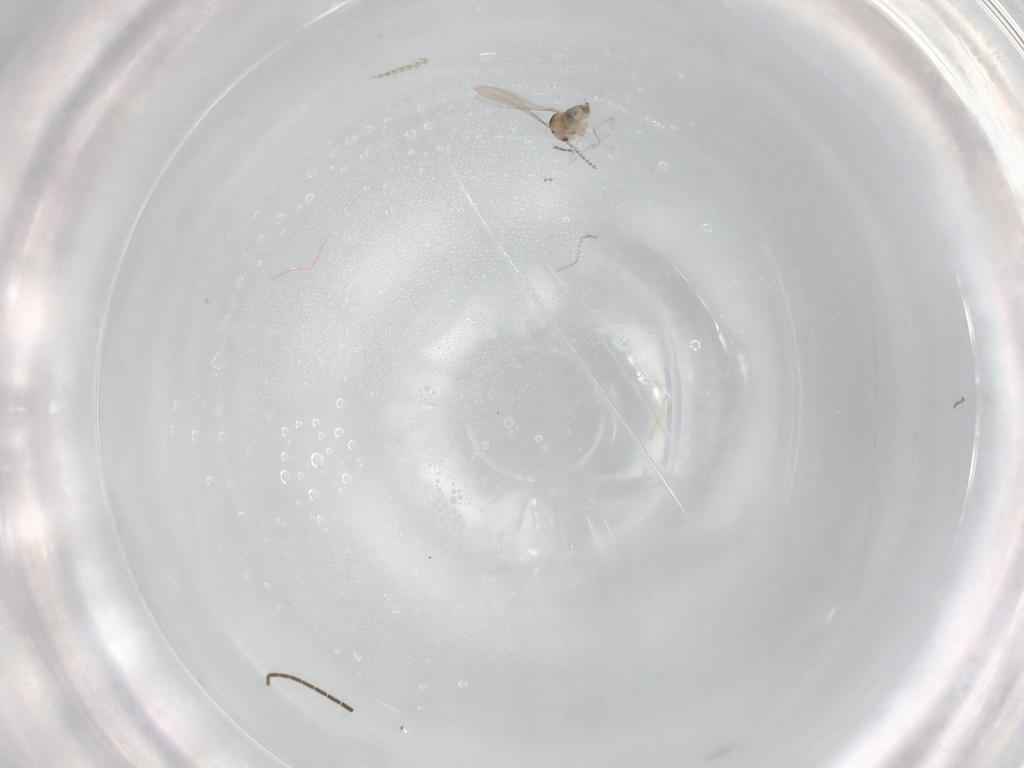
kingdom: Animalia
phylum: Arthropoda
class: Insecta
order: Diptera
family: Cecidomyiidae
